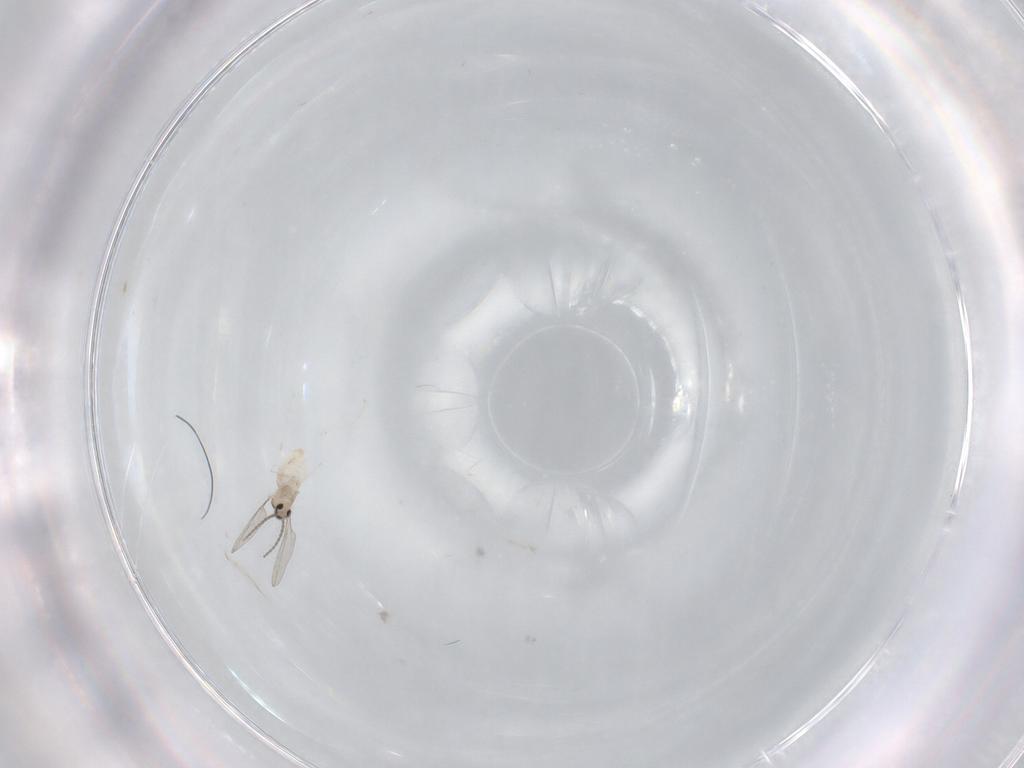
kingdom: Animalia
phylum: Arthropoda
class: Insecta
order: Diptera
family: Cecidomyiidae
